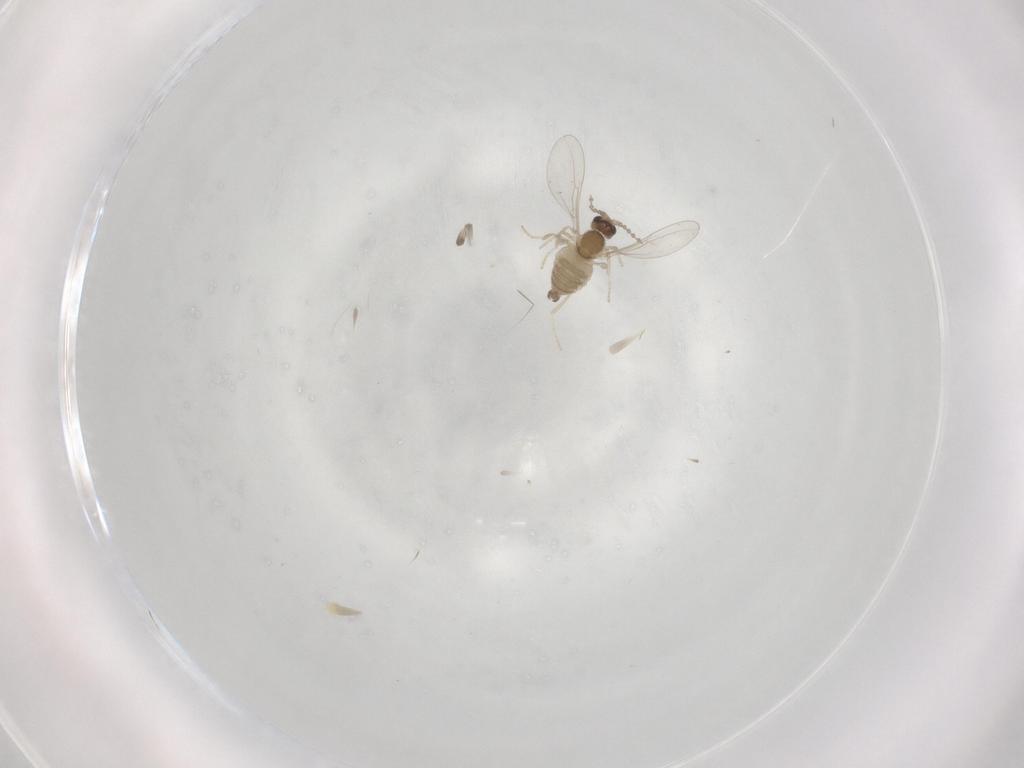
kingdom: Animalia
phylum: Arthropoda
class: Insecta
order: Diptera
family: Cecidomyiidae
